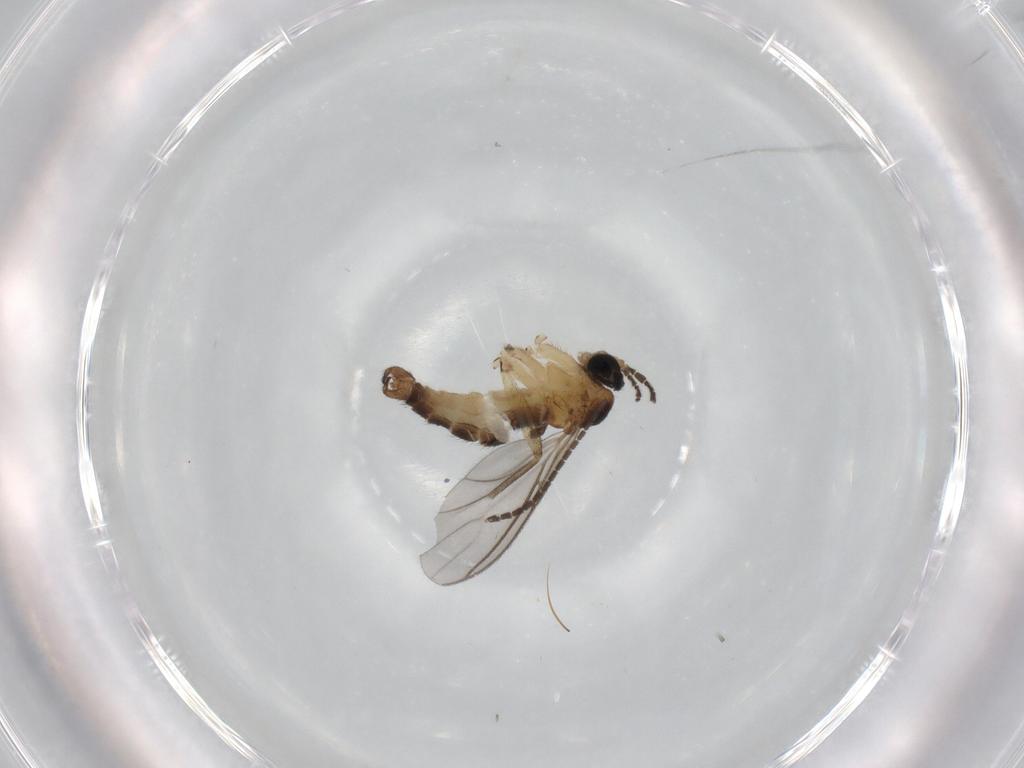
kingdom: Animalia
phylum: Arthropoda
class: Insecta
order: Diptera
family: Sciaridae
